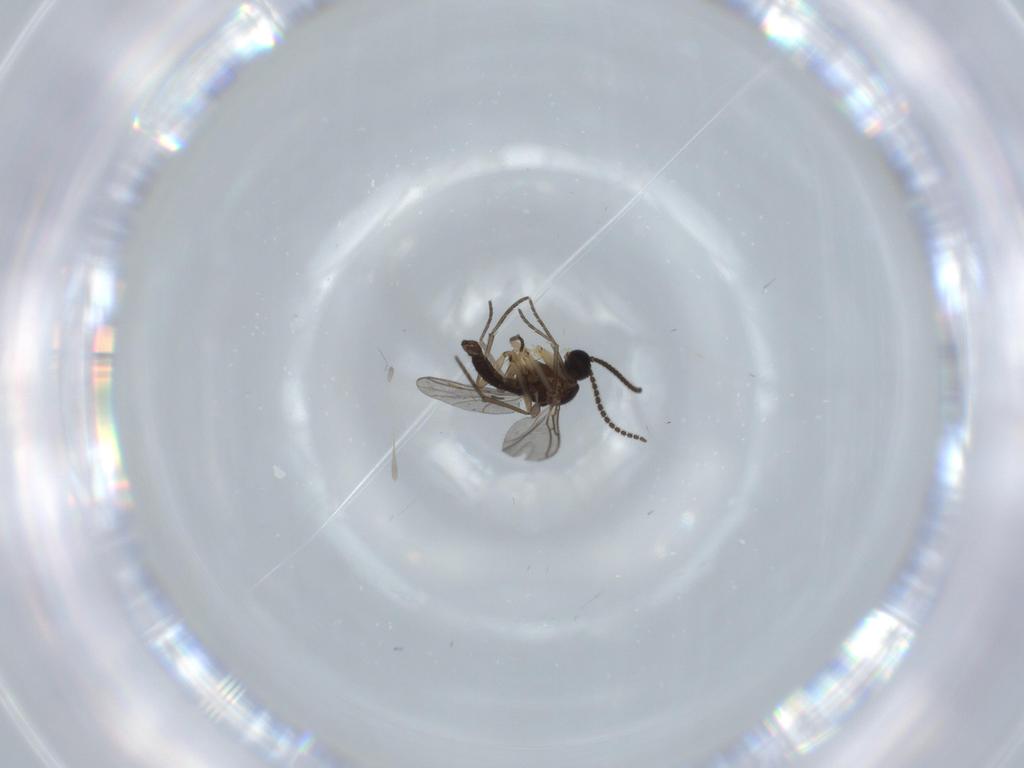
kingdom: Animalia
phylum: Arthropoda
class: Insecta
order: Diptera
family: Sciaridae
